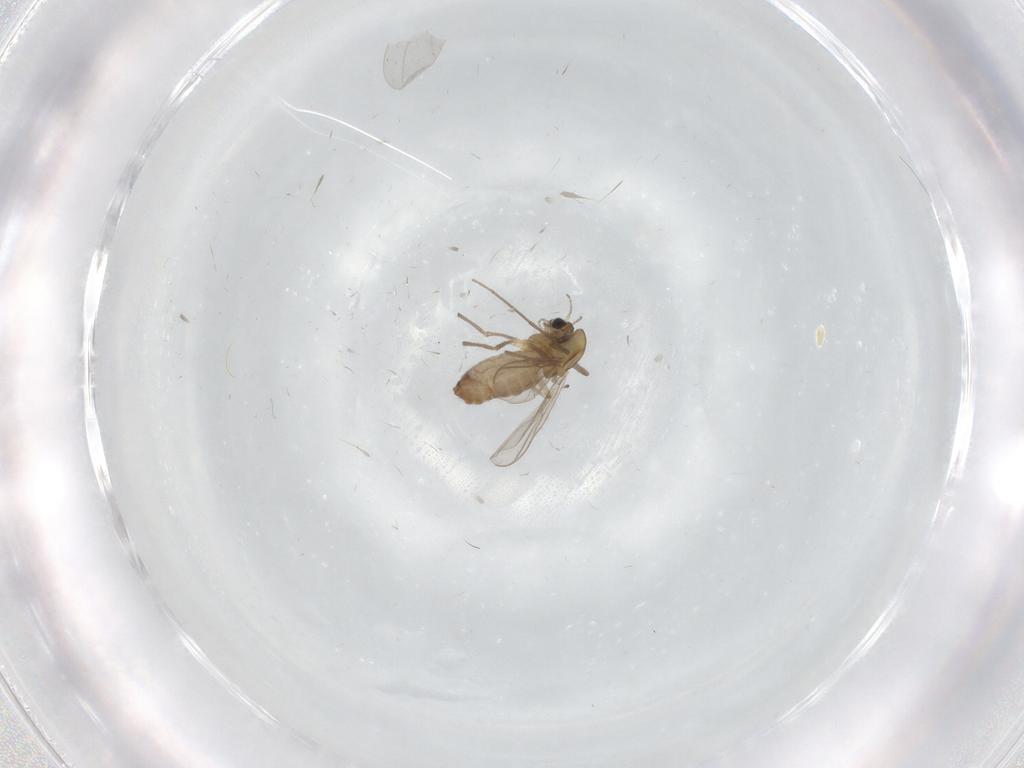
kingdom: Animalia
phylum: Arthropoda
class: Insecta
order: Diptera
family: Chironomidae
